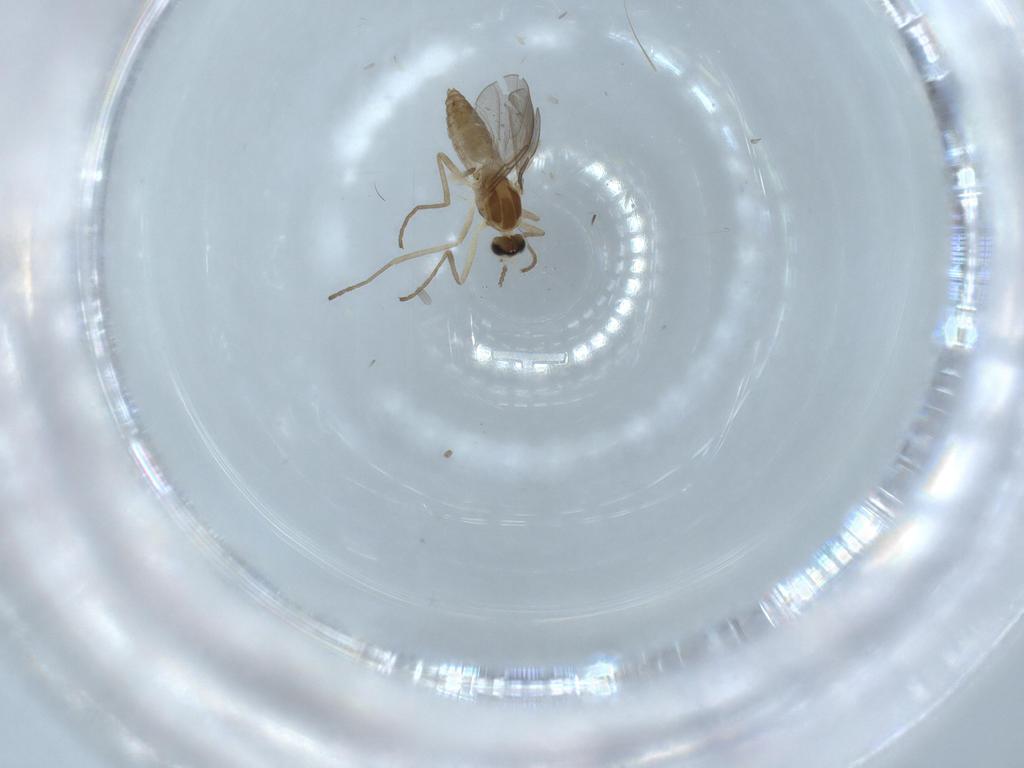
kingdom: Animalia
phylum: Arthropoda
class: Insecta
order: Diptera
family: Cecidomyiidae
